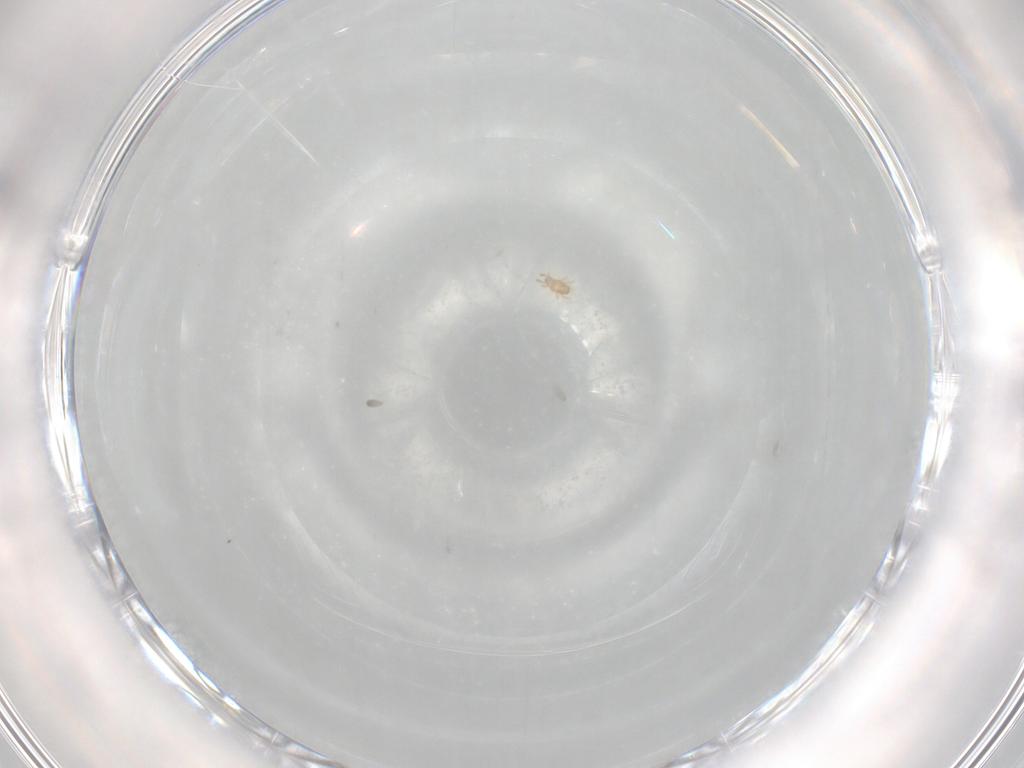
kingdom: Animalia
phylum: Arthropoda
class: Arachnida
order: Trombidiformes
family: Pygmephoridae
